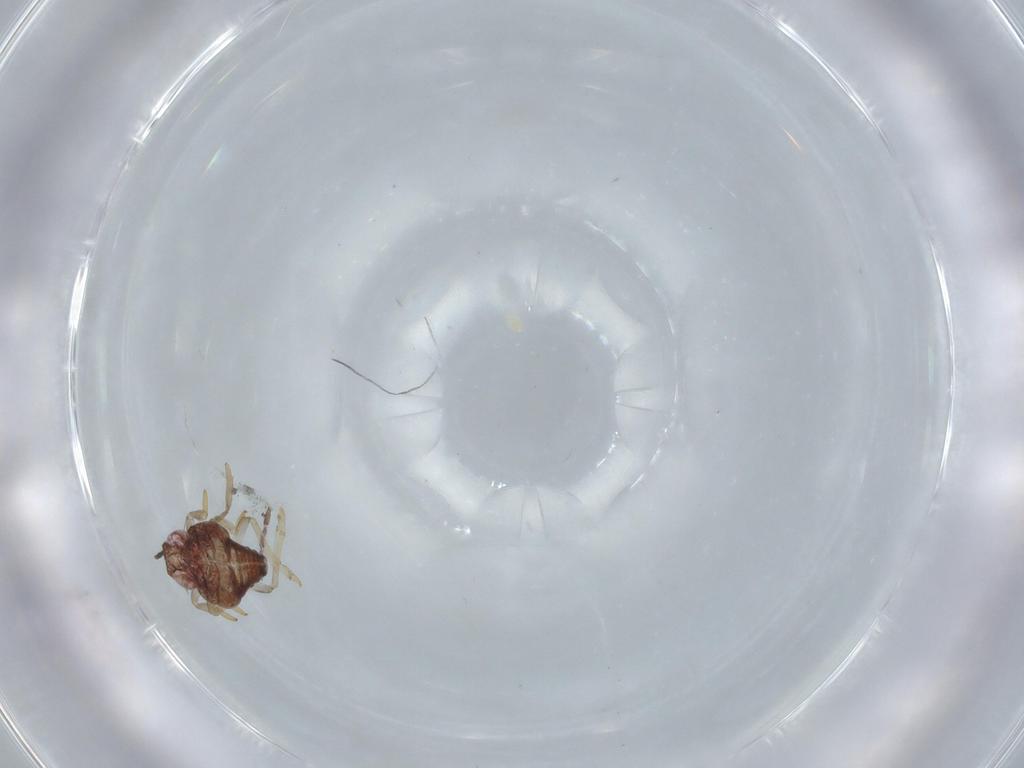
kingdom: Animalia
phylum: Arthropoda
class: Insecta
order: Hemiptera
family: Issidae
